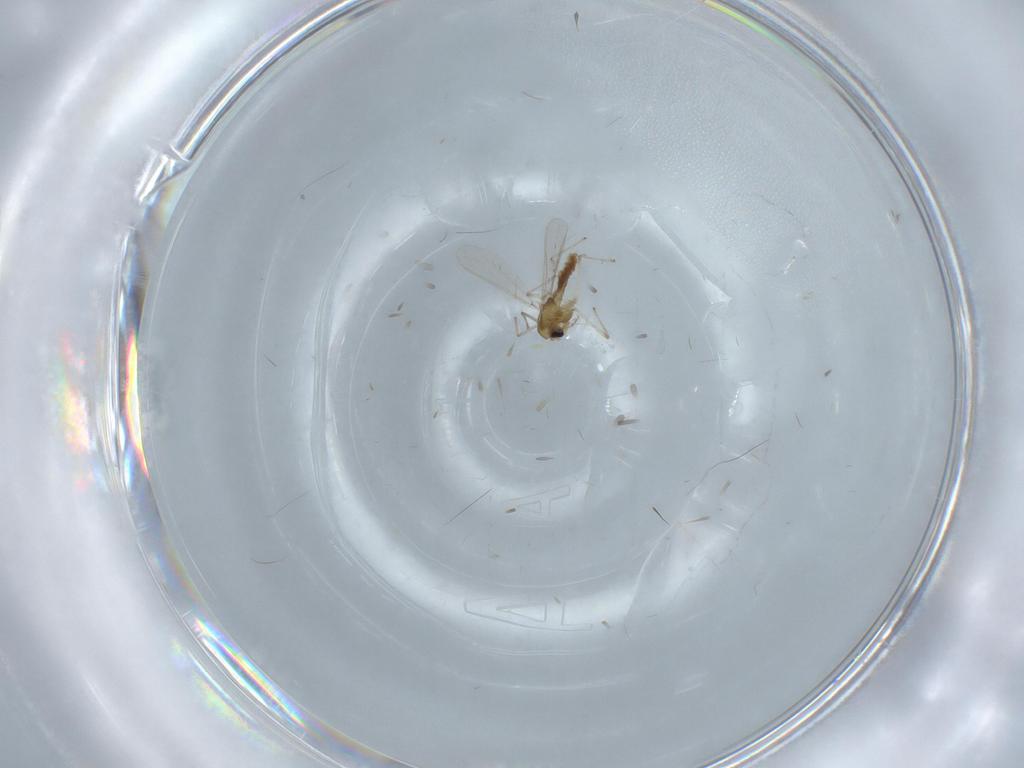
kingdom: Animalia
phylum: Arthropoda
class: Insecta
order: Diptera
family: Chironomidae
